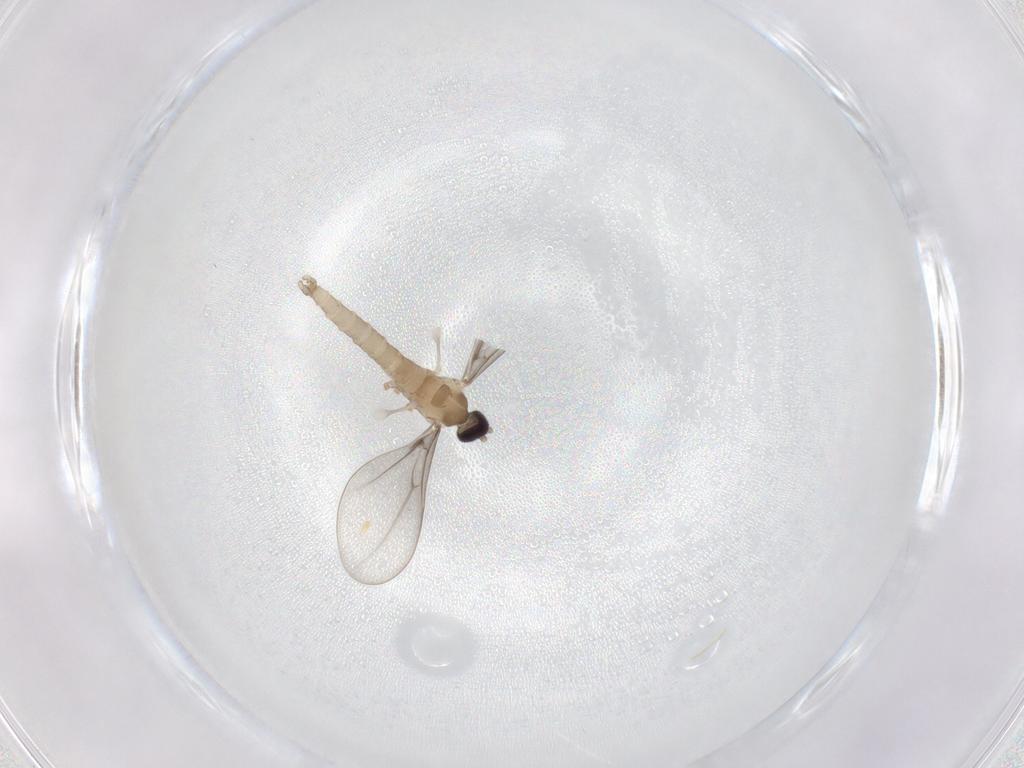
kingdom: Animalia
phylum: Arthropoda
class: Insecta
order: Diptera
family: Cecidomyiidae
